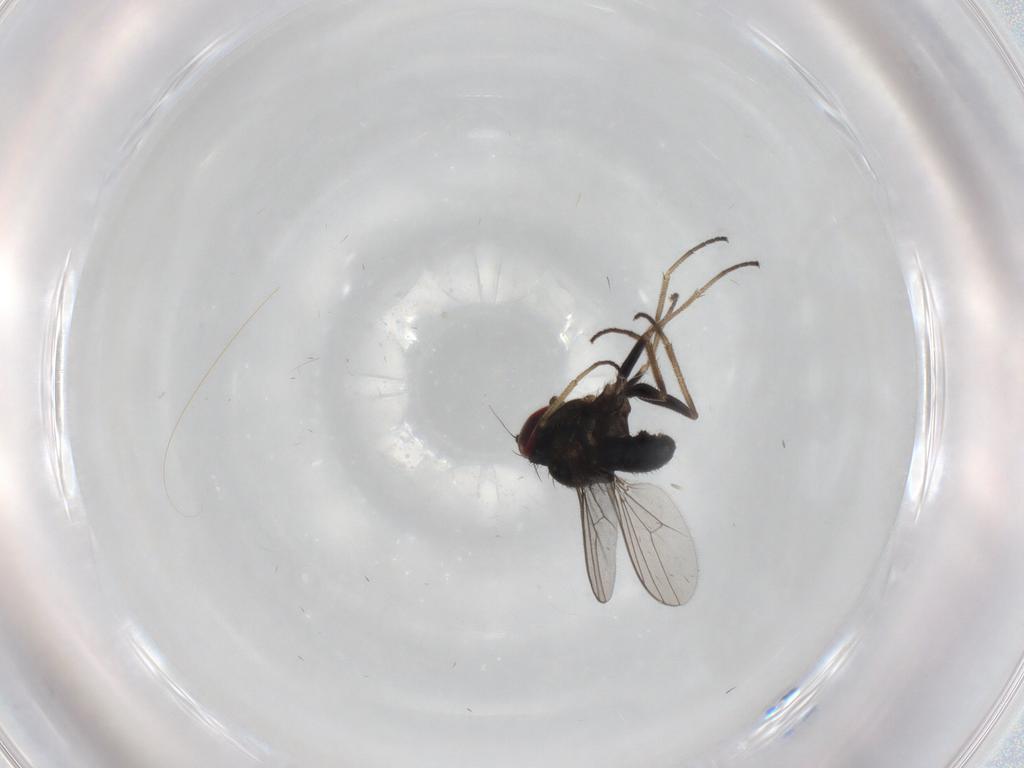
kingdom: Animalia
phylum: Arthropoda
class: Insecta
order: Diptera
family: Dolichopodidae
